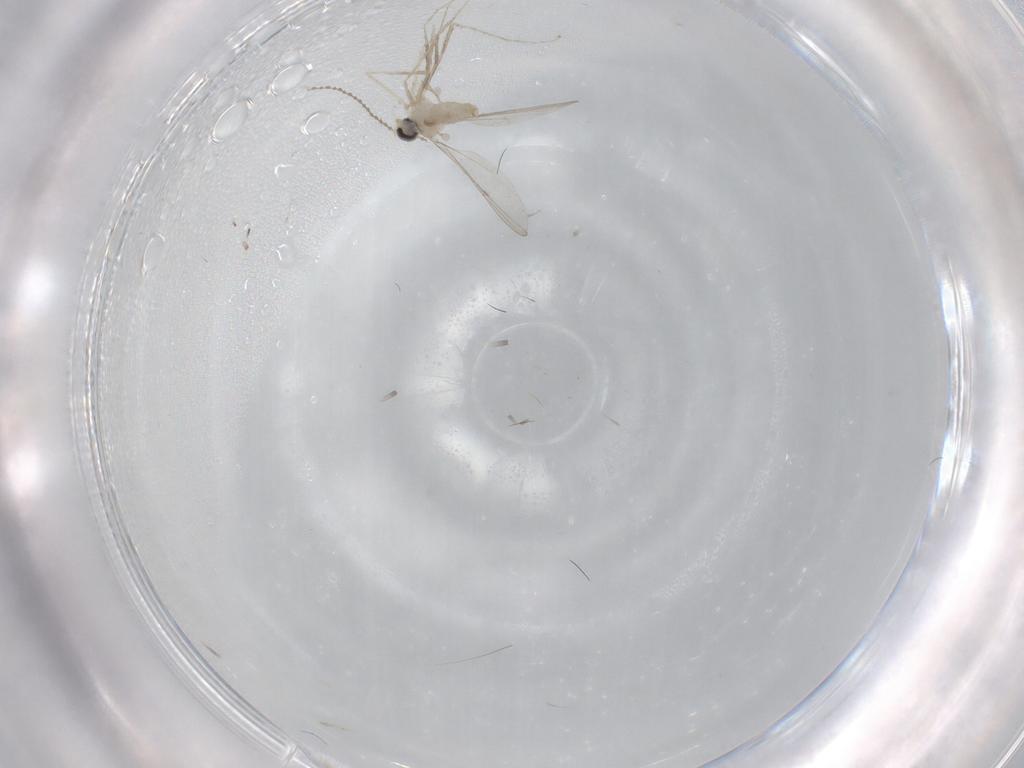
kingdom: Animalia
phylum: Arthropoda
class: Insecta
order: Diptera
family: Cecidomyiidae
